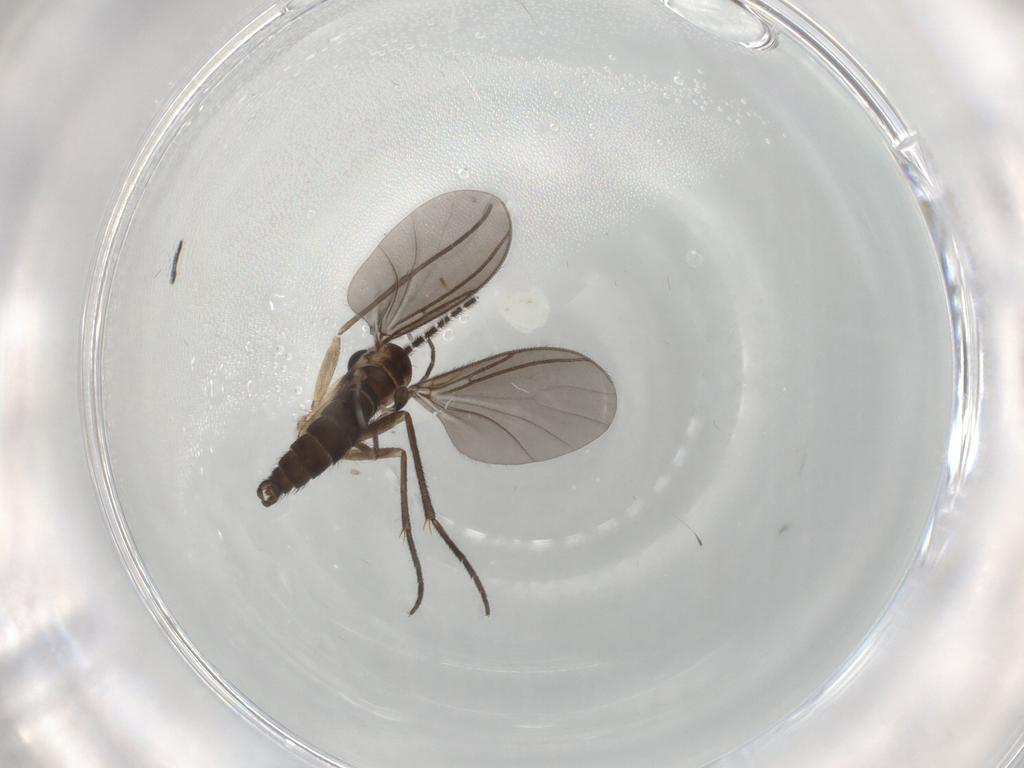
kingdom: Animalia
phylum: Arthropoda
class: Insecta
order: Diptera
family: Sciaridae
